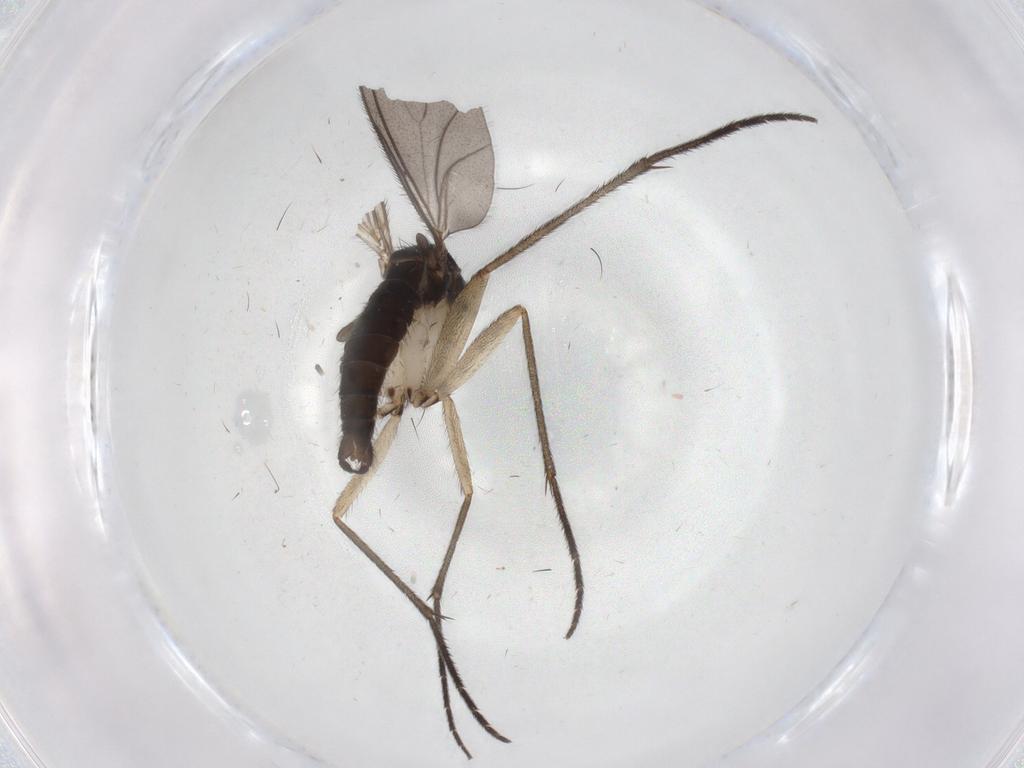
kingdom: Animalia
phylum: Arthropoda
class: Insecta
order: Diptera
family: Sciaridae
